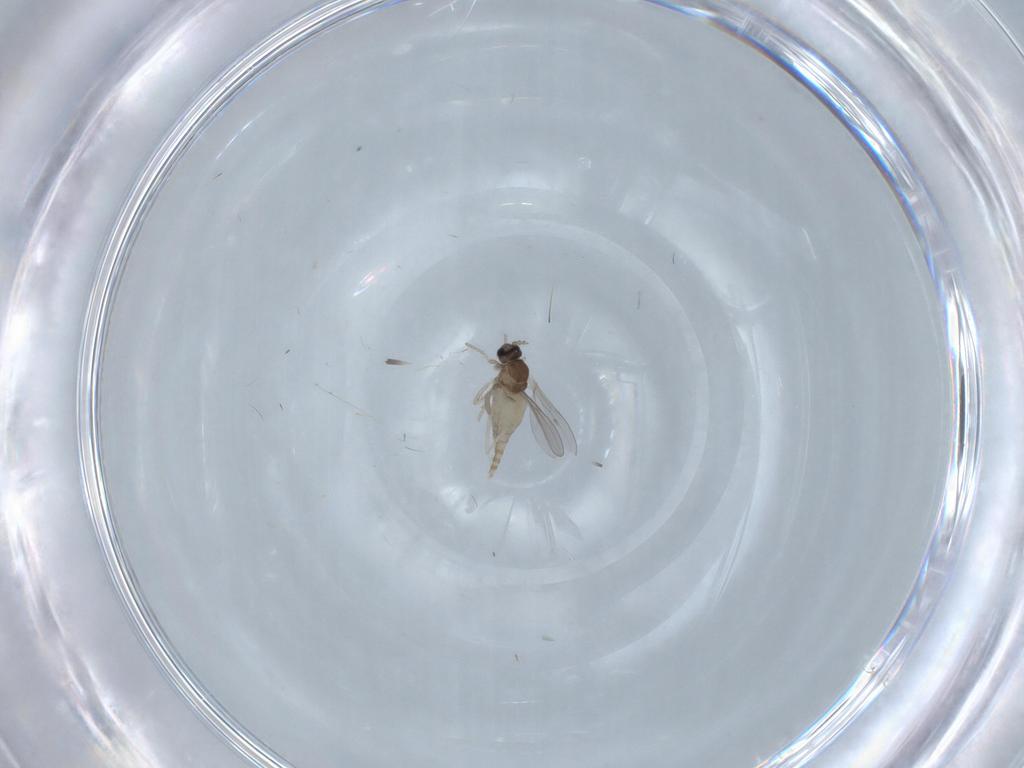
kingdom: Animalia
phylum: Arthropoda
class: Insecta
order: Diptera
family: Cecidomyiidae
